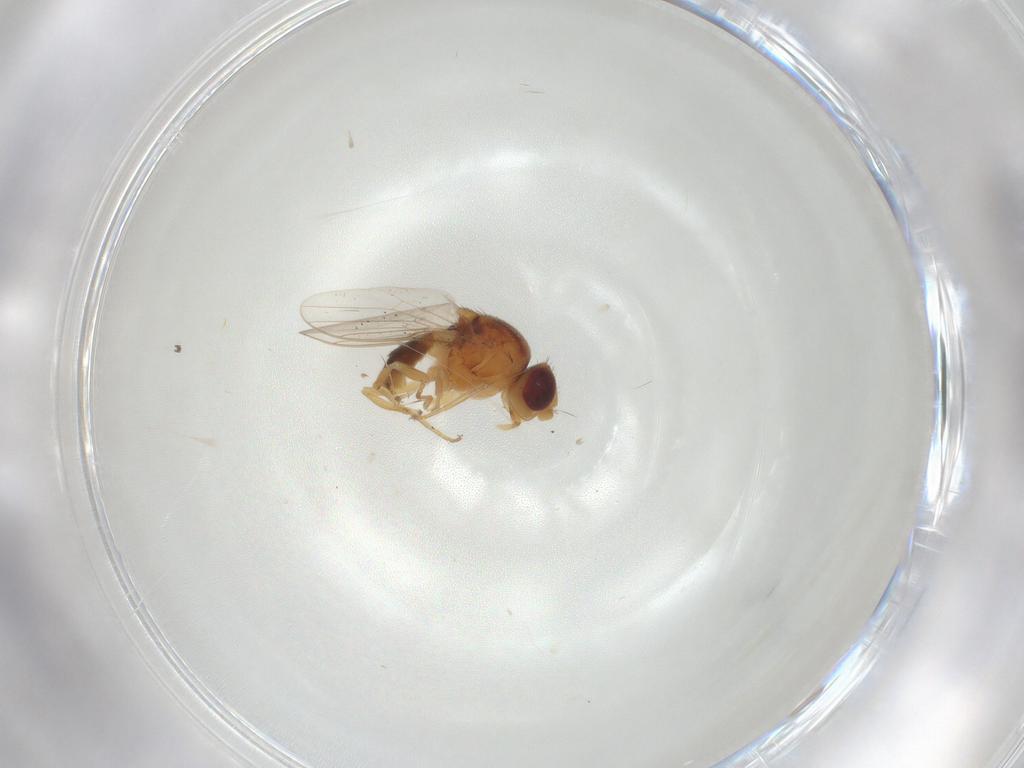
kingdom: Animalia
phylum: Arthropoda
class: Insecta
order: Diptera
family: Chloropidae
